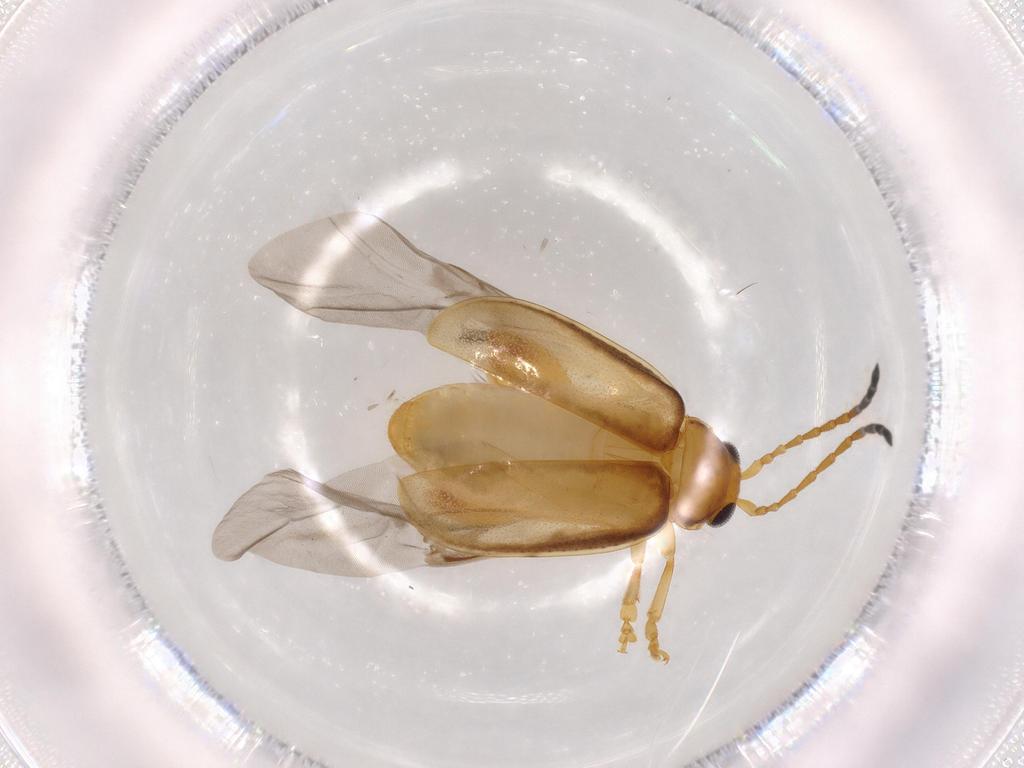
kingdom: Animalia
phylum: Arthropoda
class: Insecta
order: Coleoptera
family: Chrysomelidae
